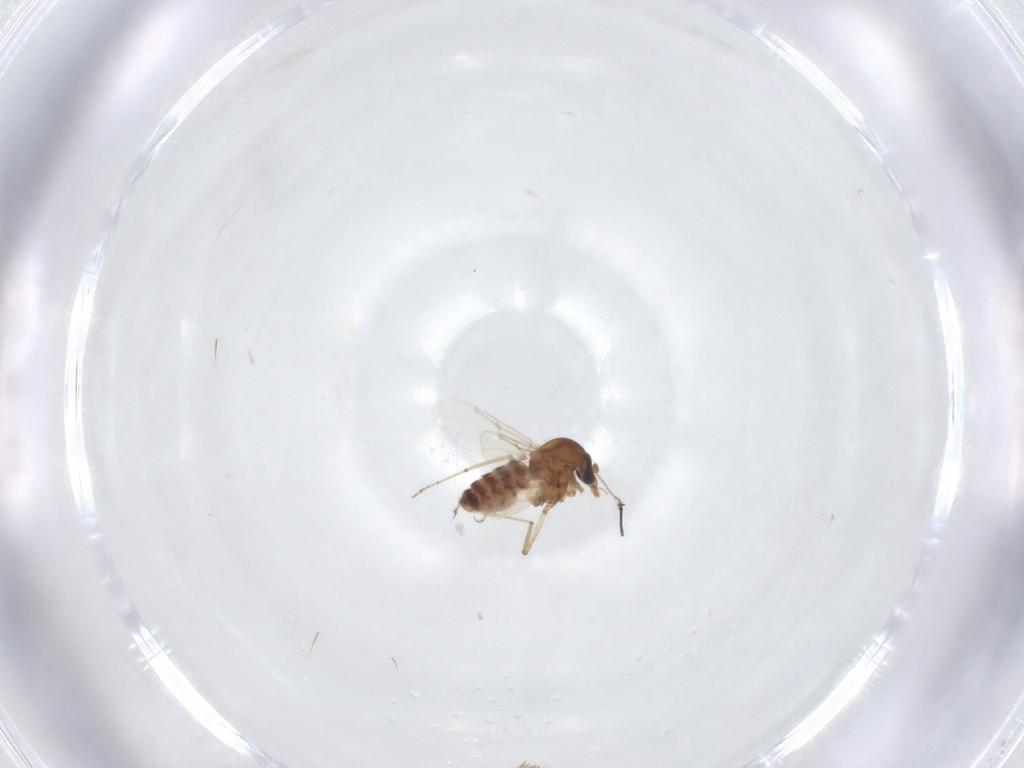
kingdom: Animalia
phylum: Arthropoda
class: Insecta
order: Diptera
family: Ceratopogonidae
